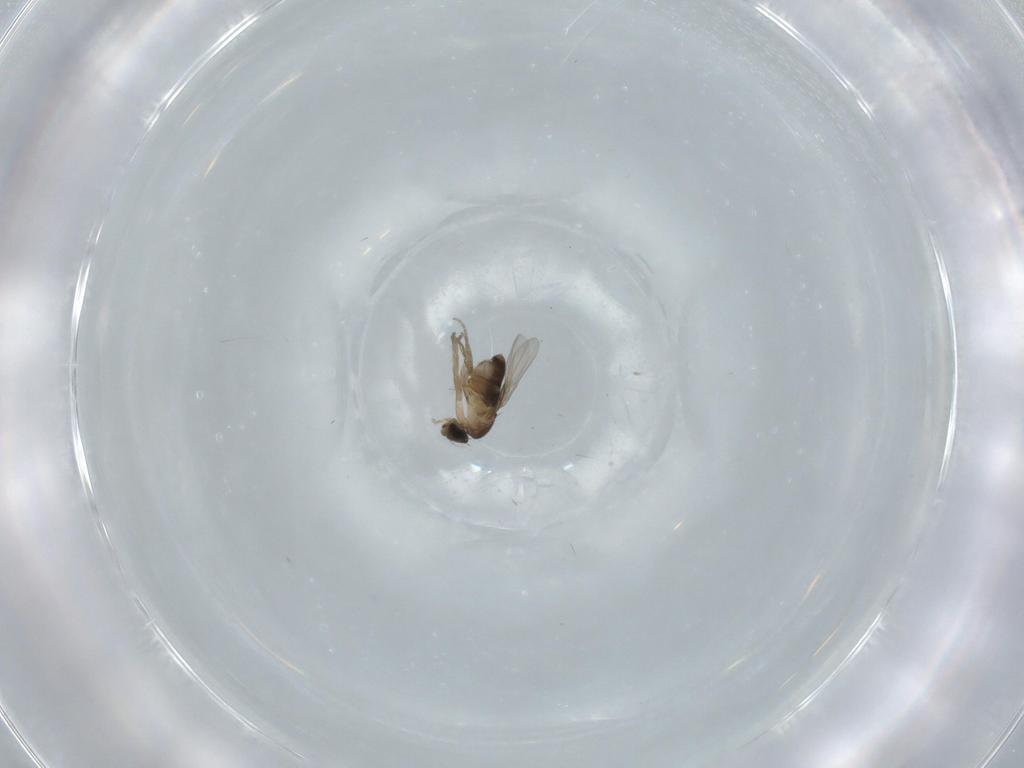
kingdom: Animalia
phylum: Arthropoda
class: Insecta
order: Diptera
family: Phoridae
